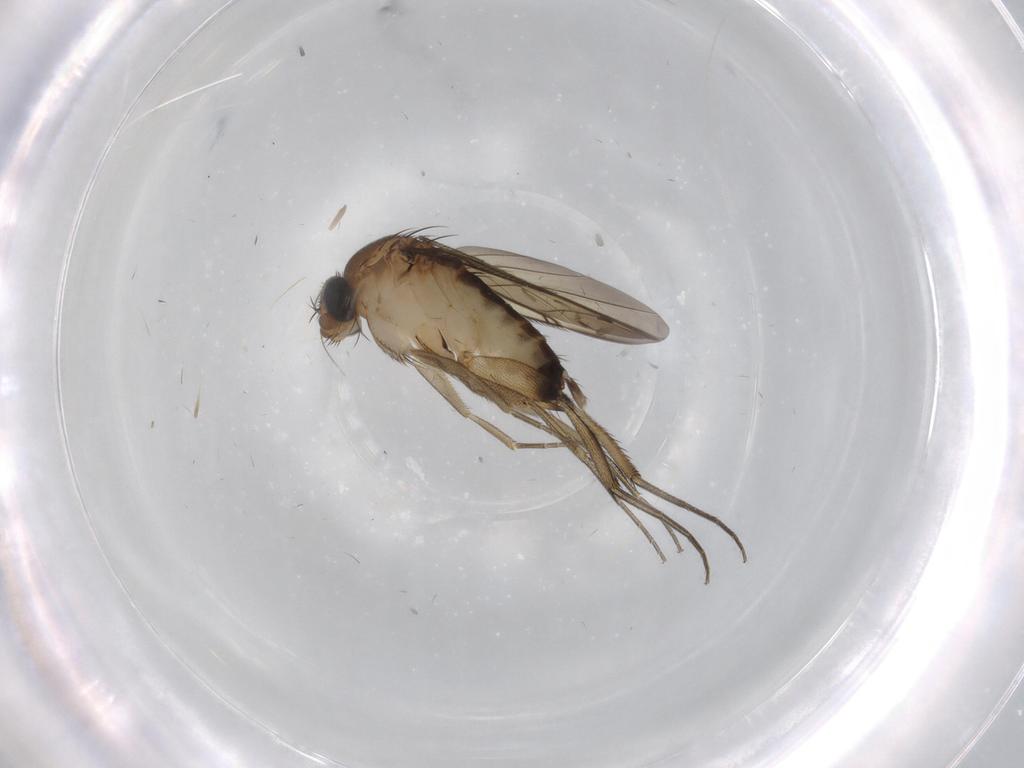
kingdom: Animalia
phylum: Arthropoda
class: Insecta
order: Diptera
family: Phoridae
